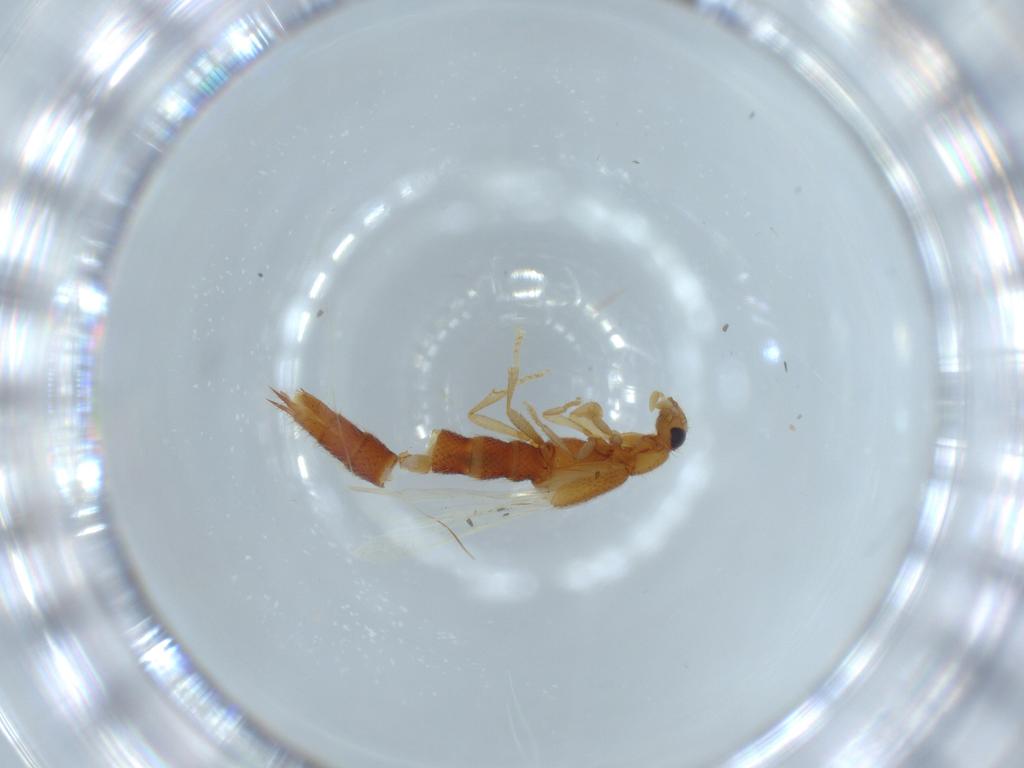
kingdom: Animalia
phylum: Arthropoda
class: Insecta
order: Coleoptera
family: Staphylinidae
